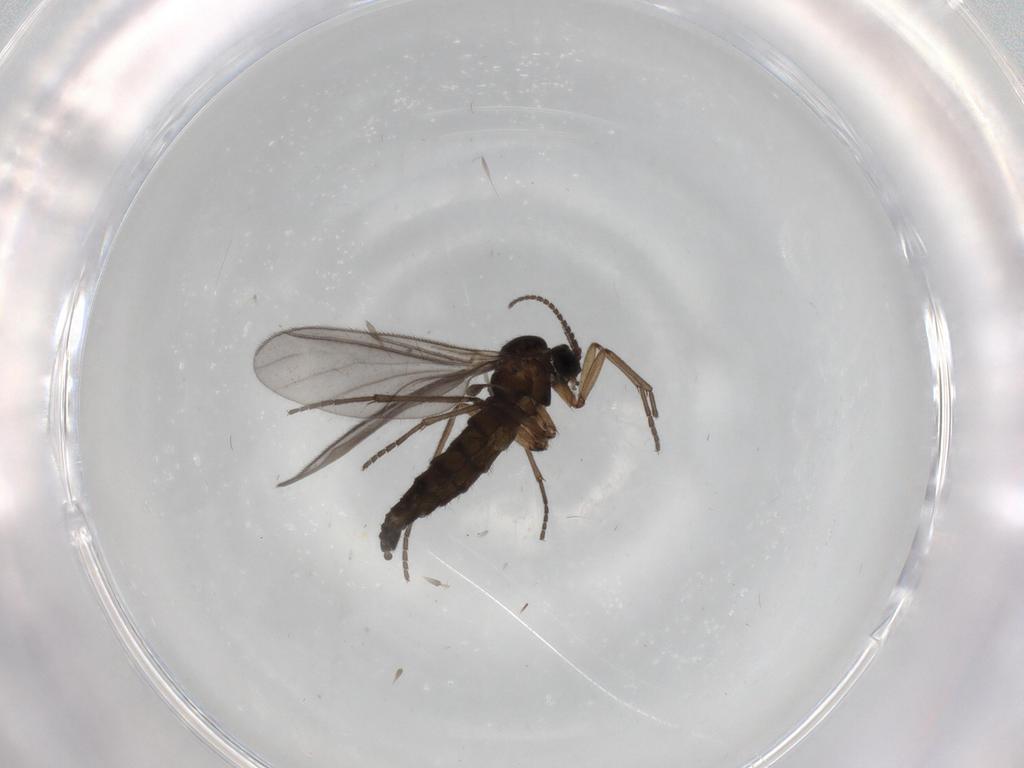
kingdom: Animalia
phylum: Arthropoda
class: Insecta
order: Diptera
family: Sciaridae
